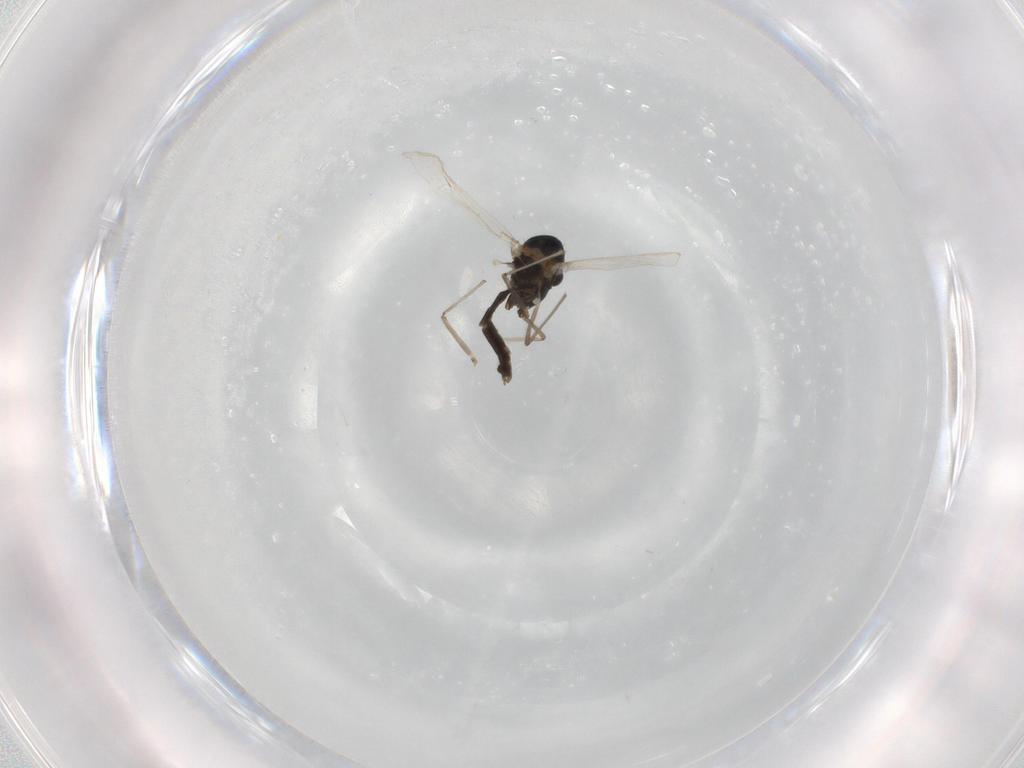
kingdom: Animalia
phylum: Arthropoda
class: Insecta
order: Diptera
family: Chironomidae
